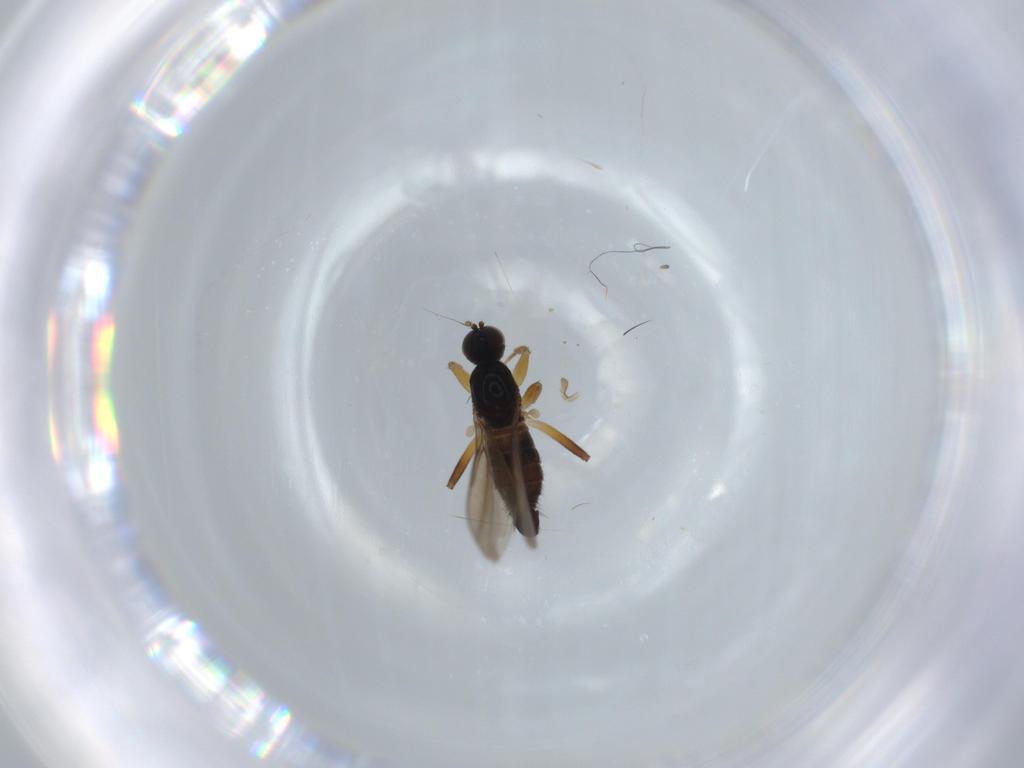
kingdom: Animalia
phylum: Arthropoda
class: Insecta
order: Diptera
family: Hybotidae
